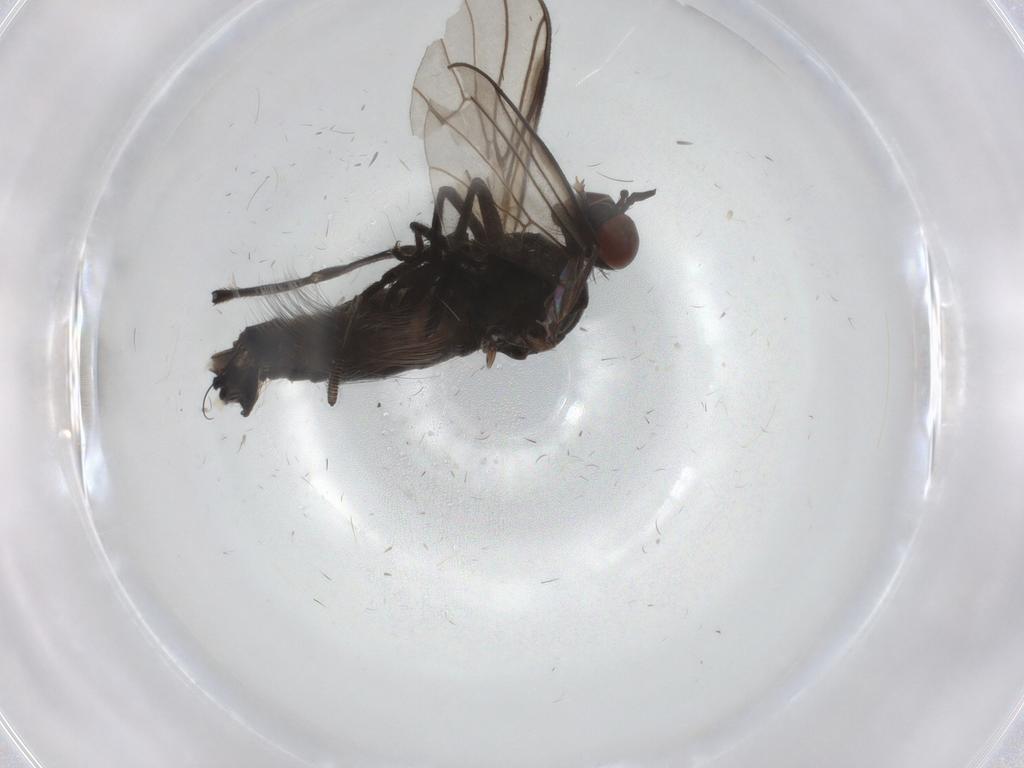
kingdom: Animalia
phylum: Arthropoda
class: Insecta
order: Diptera
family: Empididae
